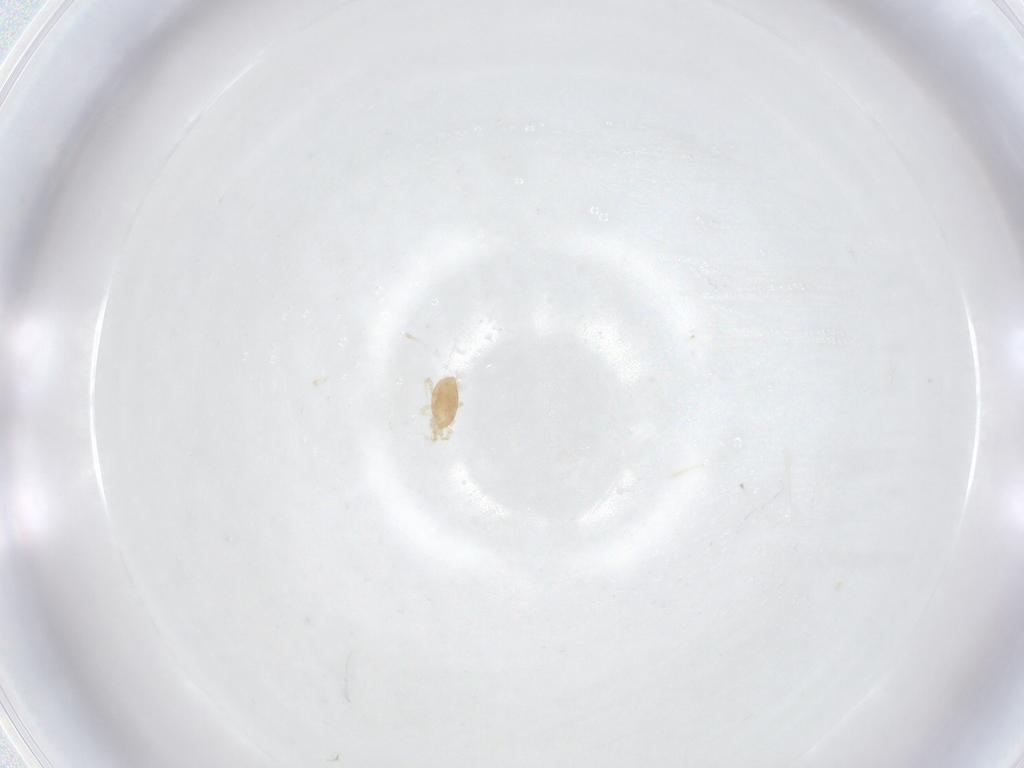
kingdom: Animalia
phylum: Arthropoda
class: Arachnida
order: Mesostigmata
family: Melicharidae
